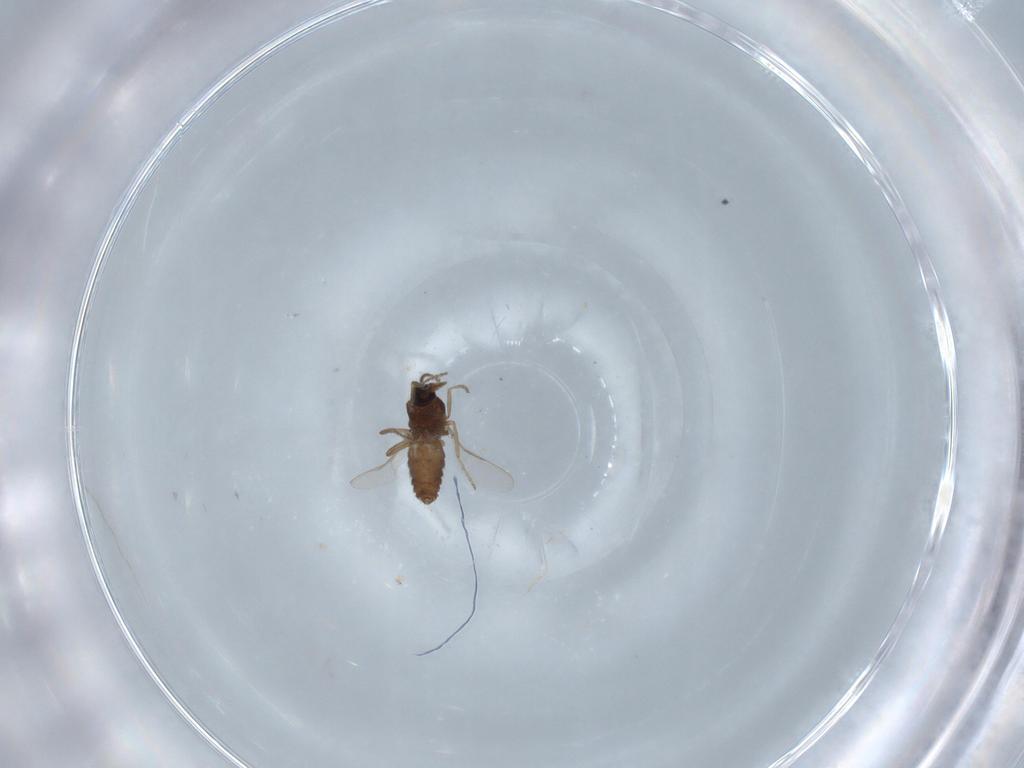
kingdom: Animalia
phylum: Arthropoda
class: Insecta
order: Diptera
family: Ceratopogonidae
